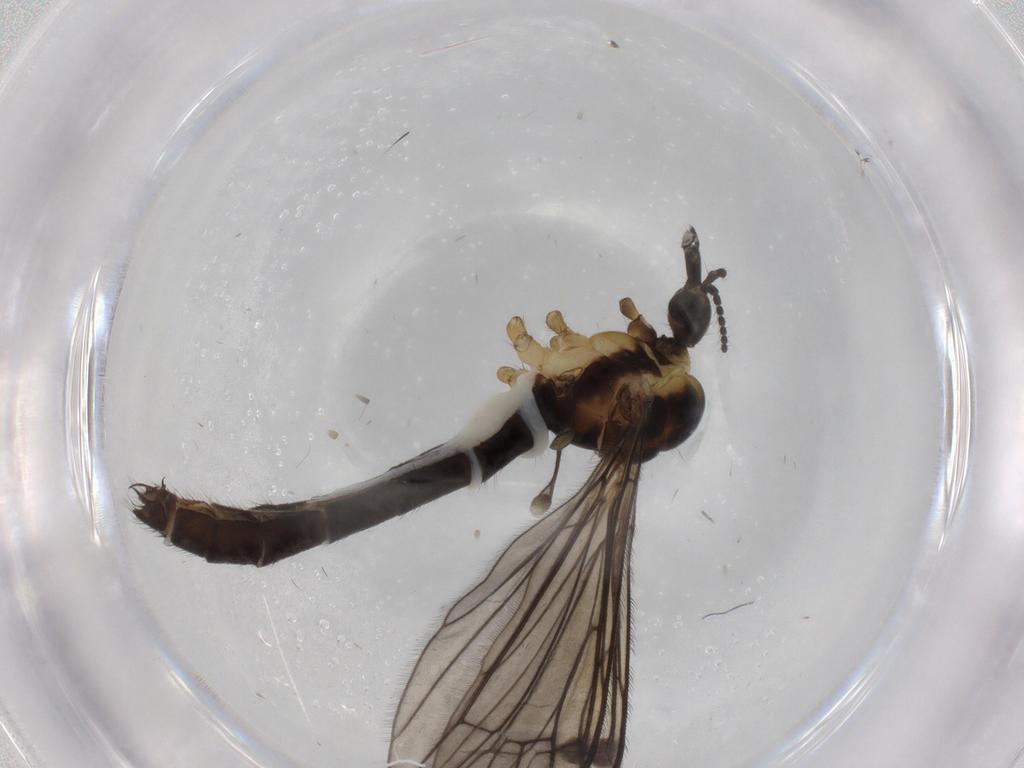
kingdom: Animalia
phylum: Arthropoda
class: Insecta
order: Diptera
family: Limoniidae
